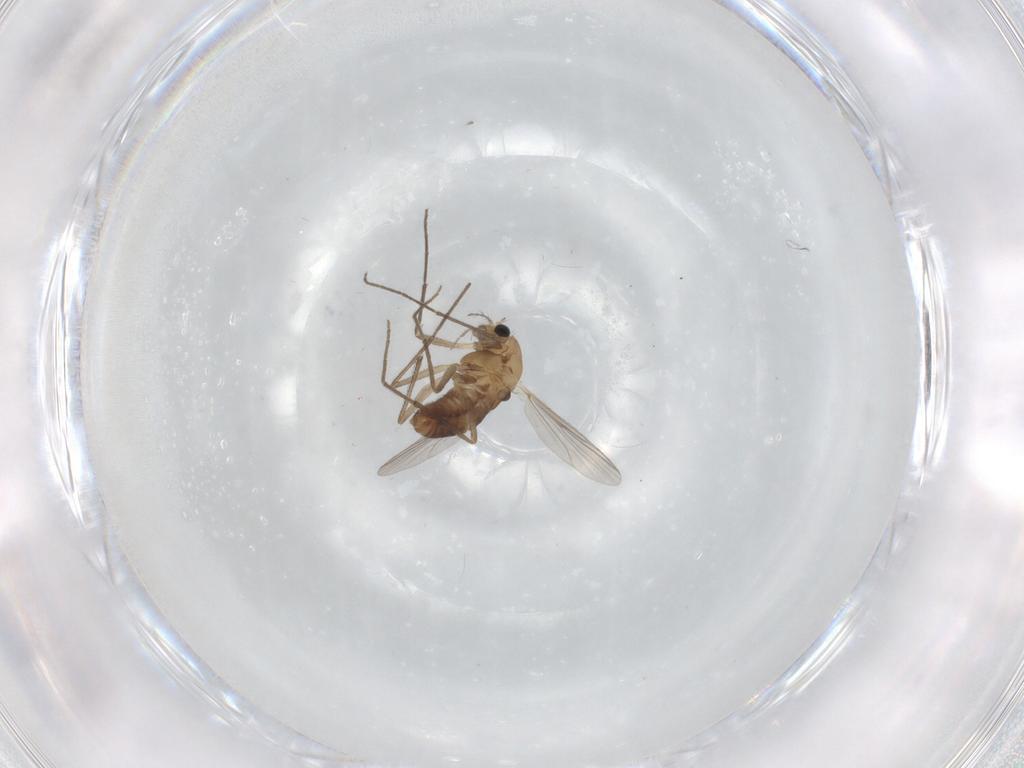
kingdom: Animalia
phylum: Arthropoda
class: Insecta
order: Diptera
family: Chironomidae
